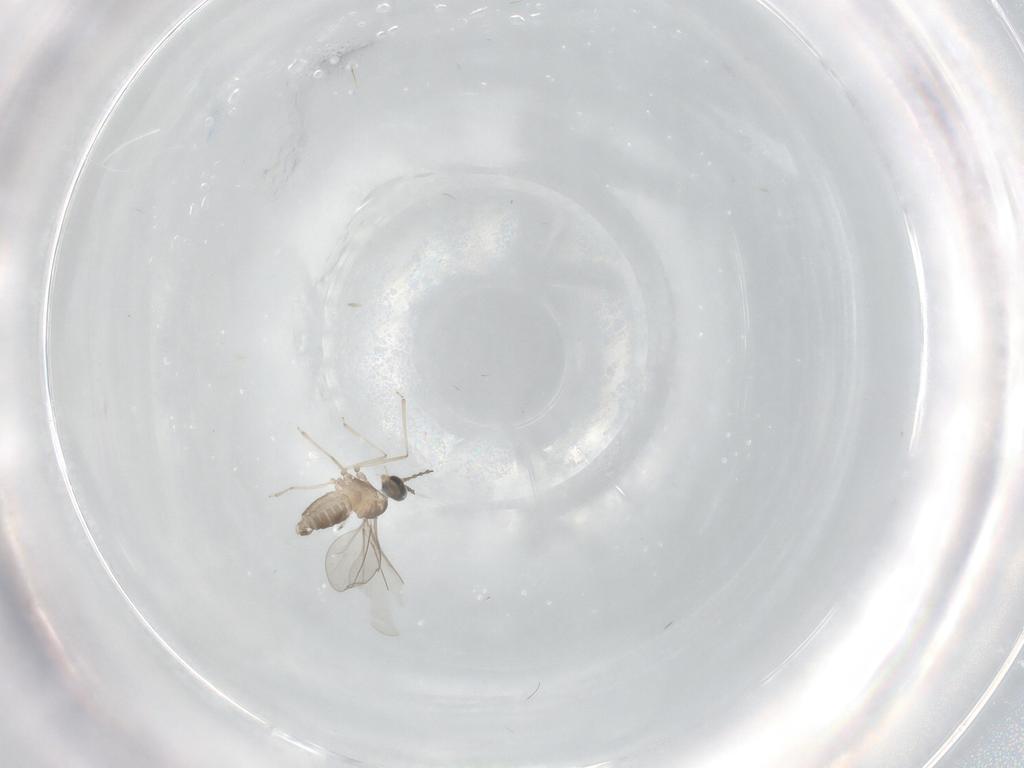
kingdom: Animalia
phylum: Arthropoda
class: Insecta
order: Diptera
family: Cecidomyiidae
